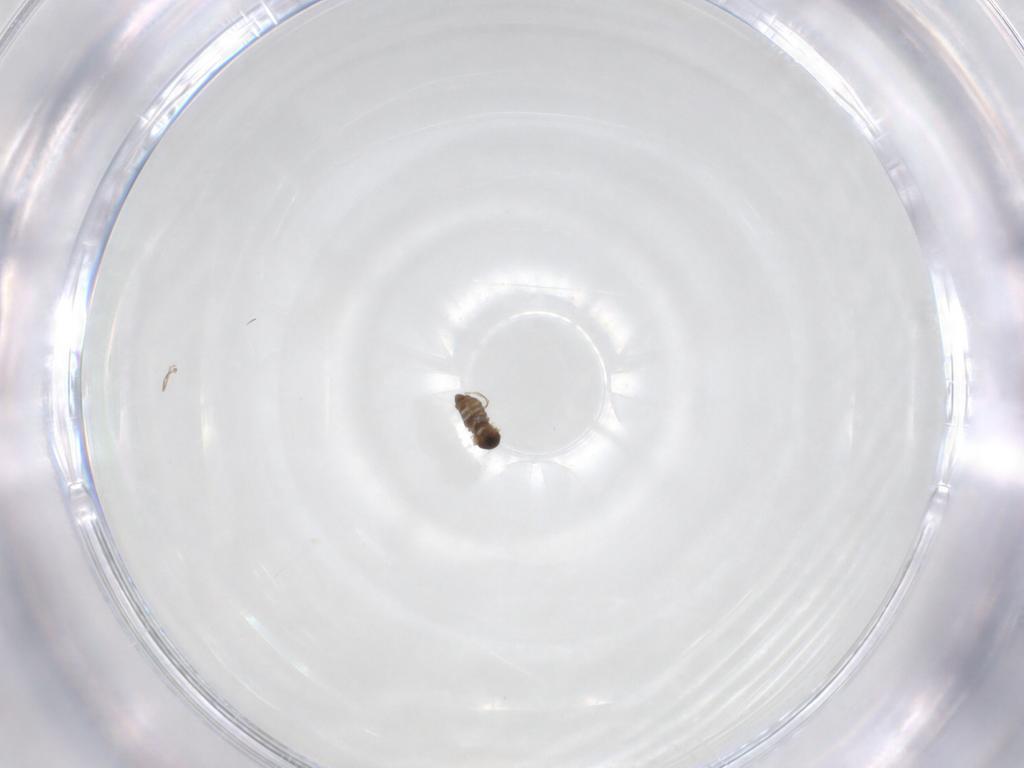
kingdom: Animalia
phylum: Arthropoda
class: Insecta
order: Diptera
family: Cecidomyiidae
